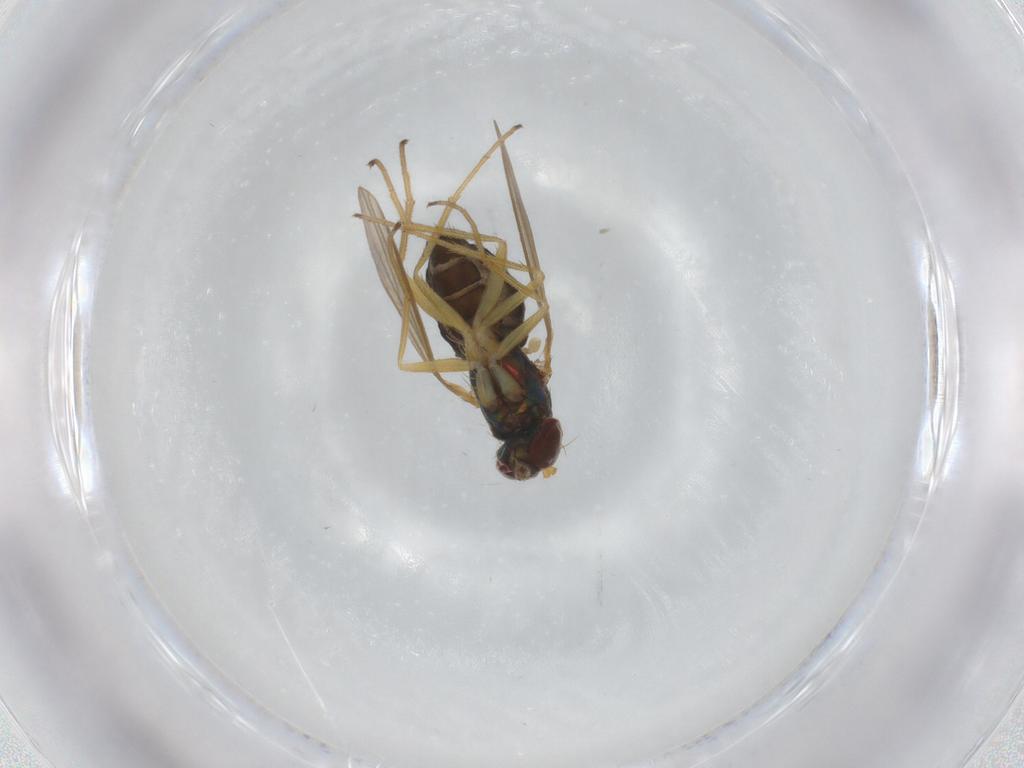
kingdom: Animalia
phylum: Arthropoda
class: Insecta
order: Diptera
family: Dolichopodidae
